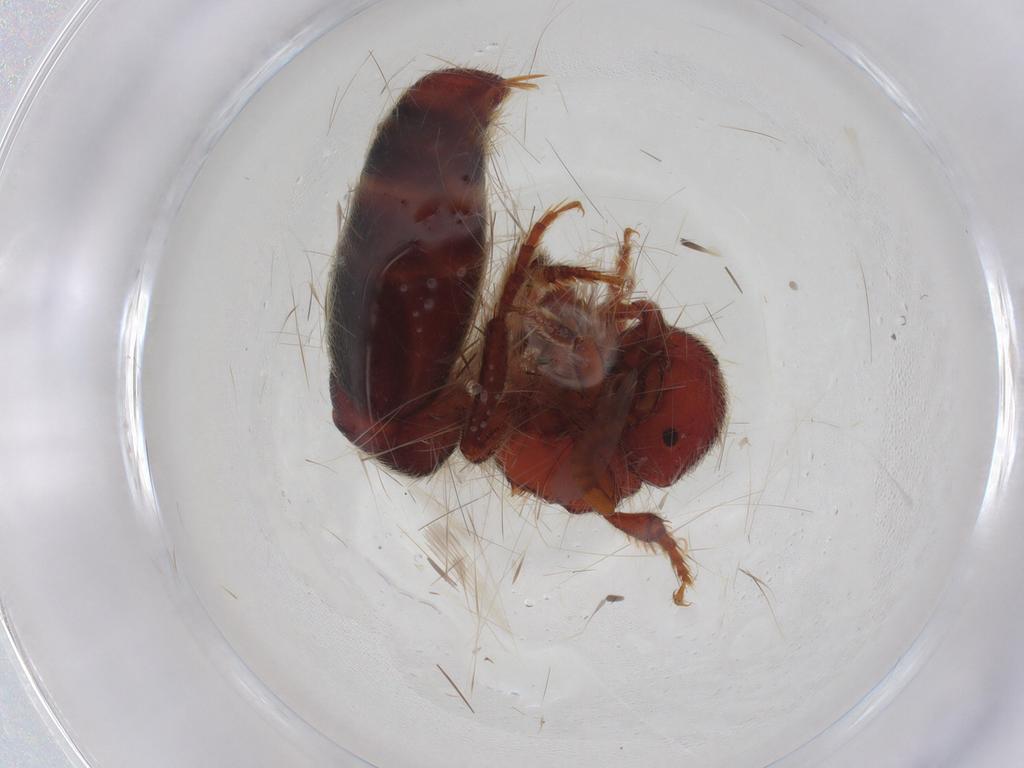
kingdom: Animalia
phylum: Arthropoda
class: Insecta
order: Hymenoptera
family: Mutillidae
